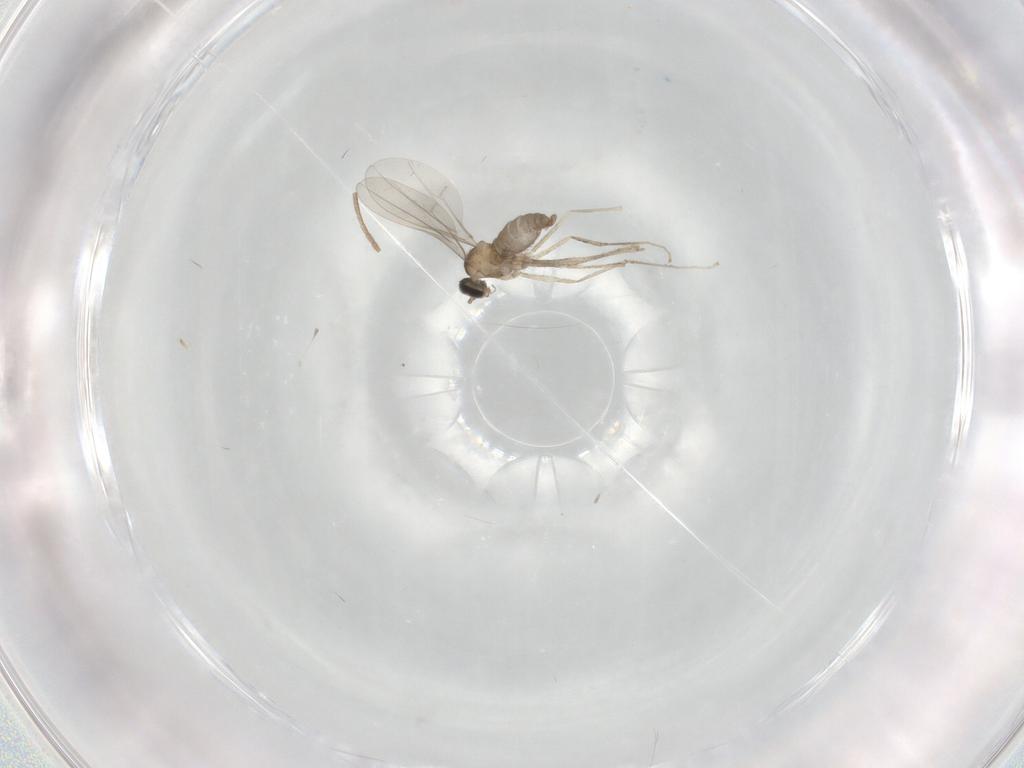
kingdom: Animalia
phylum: Arthropoda
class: Insecta
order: Diptera
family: Cecidomyiidae
